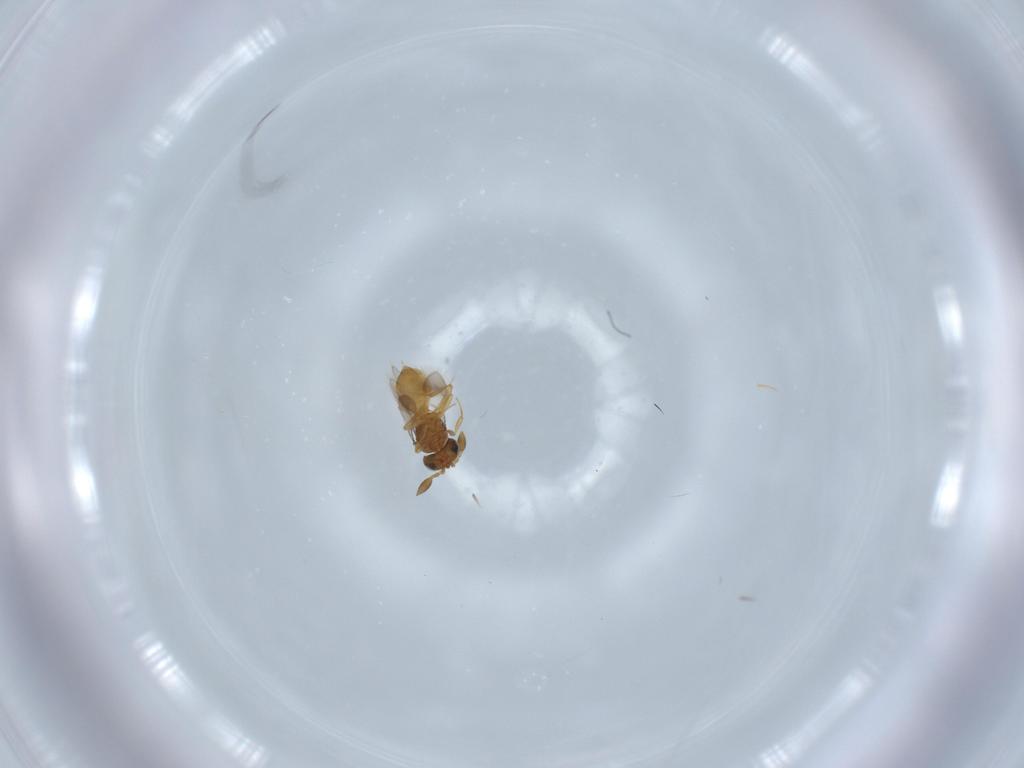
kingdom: Animalia
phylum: Arthropoda
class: Insecta
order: Hymenoptera
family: Scelionidae
